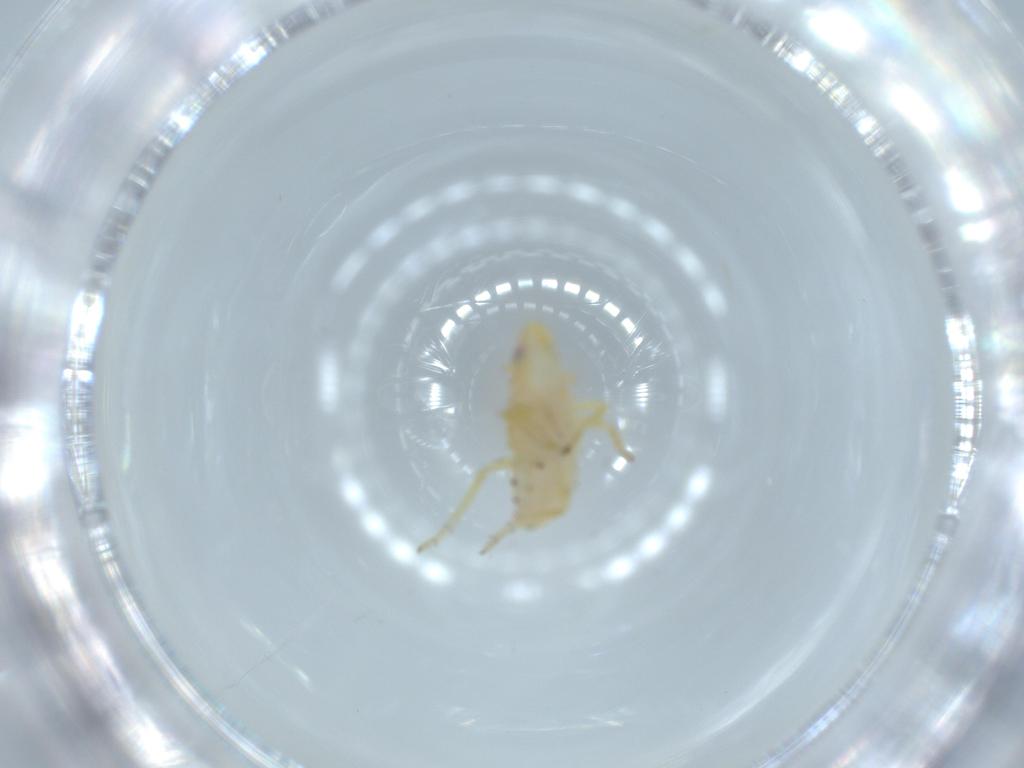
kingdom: Animalia
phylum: Arthropoda
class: Insecta
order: Hemiptera
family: Tropiduchidae
